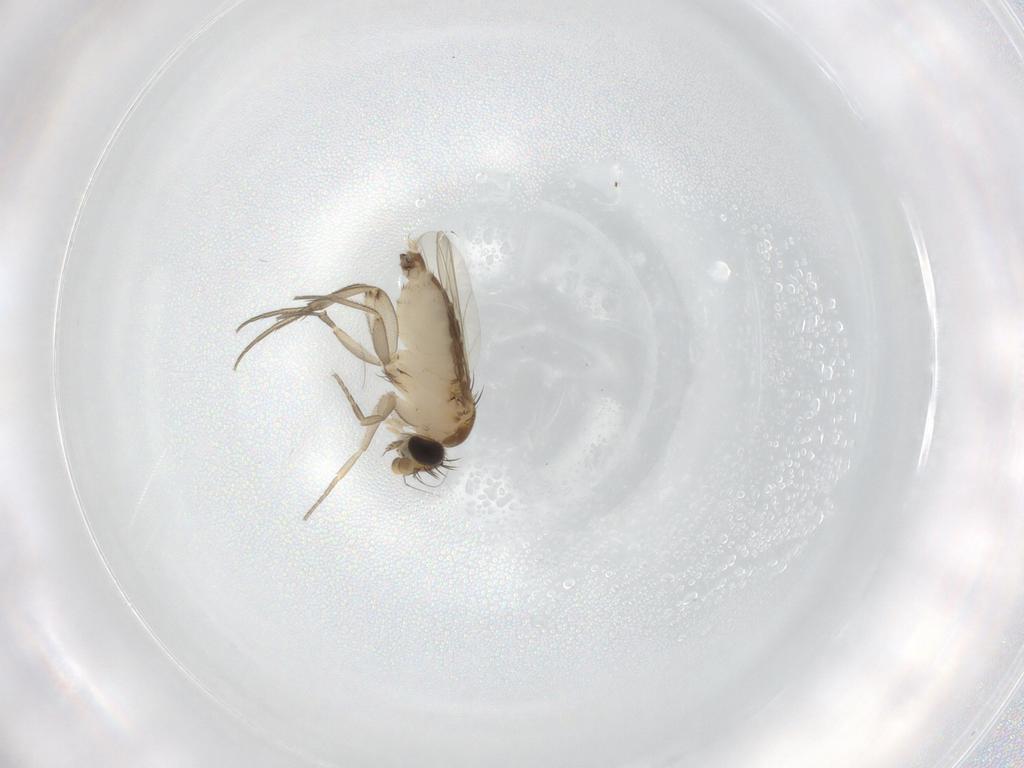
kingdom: Animalia
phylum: Arthropoda
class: Insecta
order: Diptera
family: Phoridae
